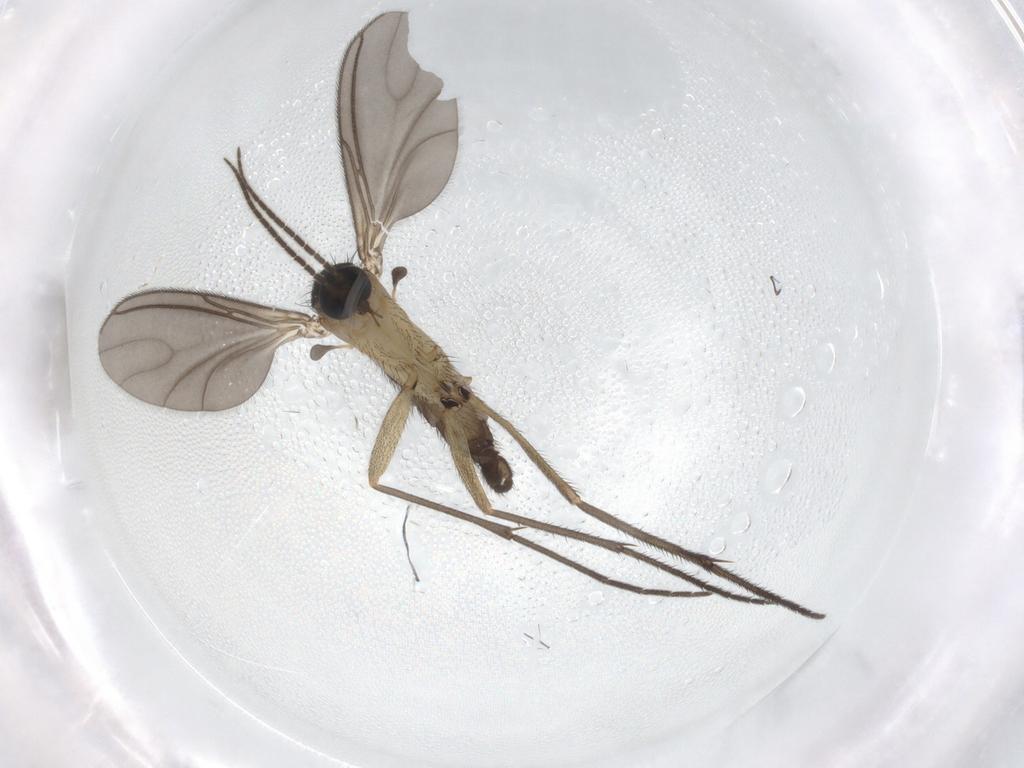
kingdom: Animalia
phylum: Arthropoda
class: Insecta
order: Diptera
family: Sciaridae
